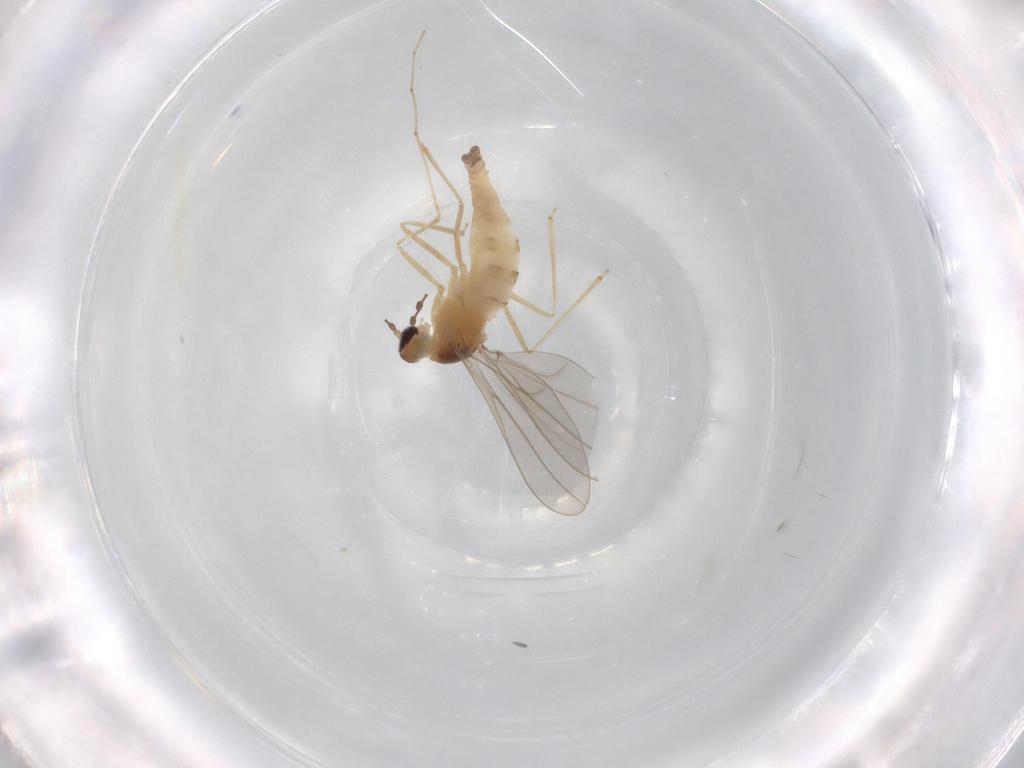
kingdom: Animalia
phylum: Arthropoda
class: Insecta
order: Diptera
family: Cecidomyiidae
